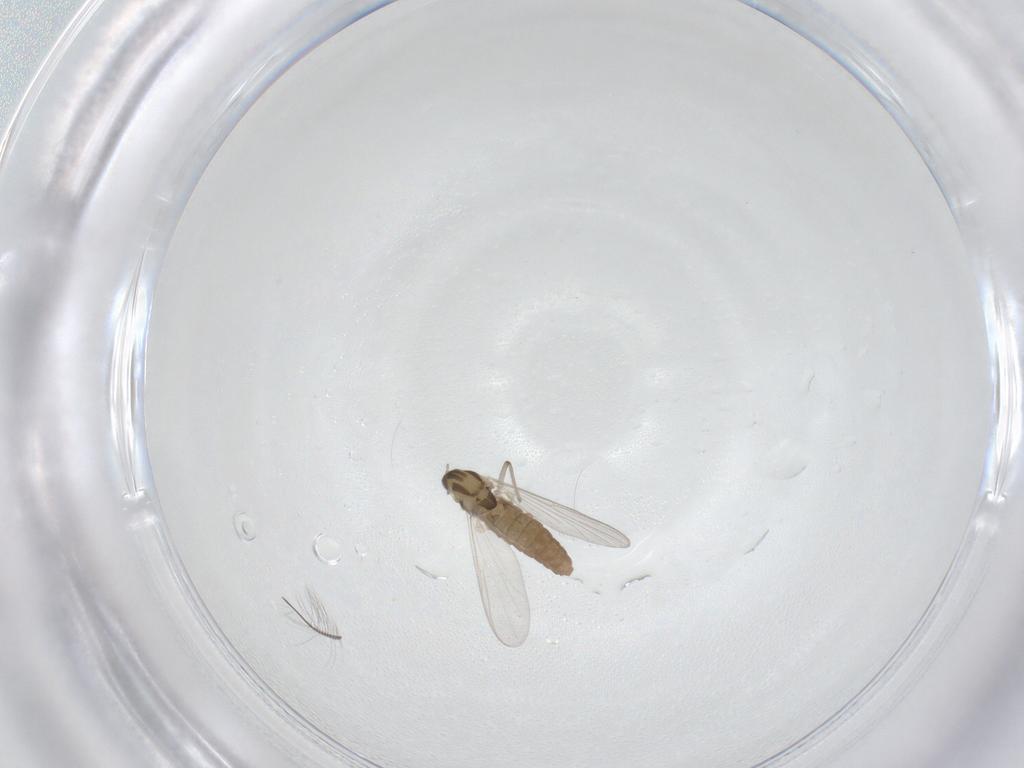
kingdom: Animalia
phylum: Arthropoda
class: Insecta
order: Diptera
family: Chironomidae
